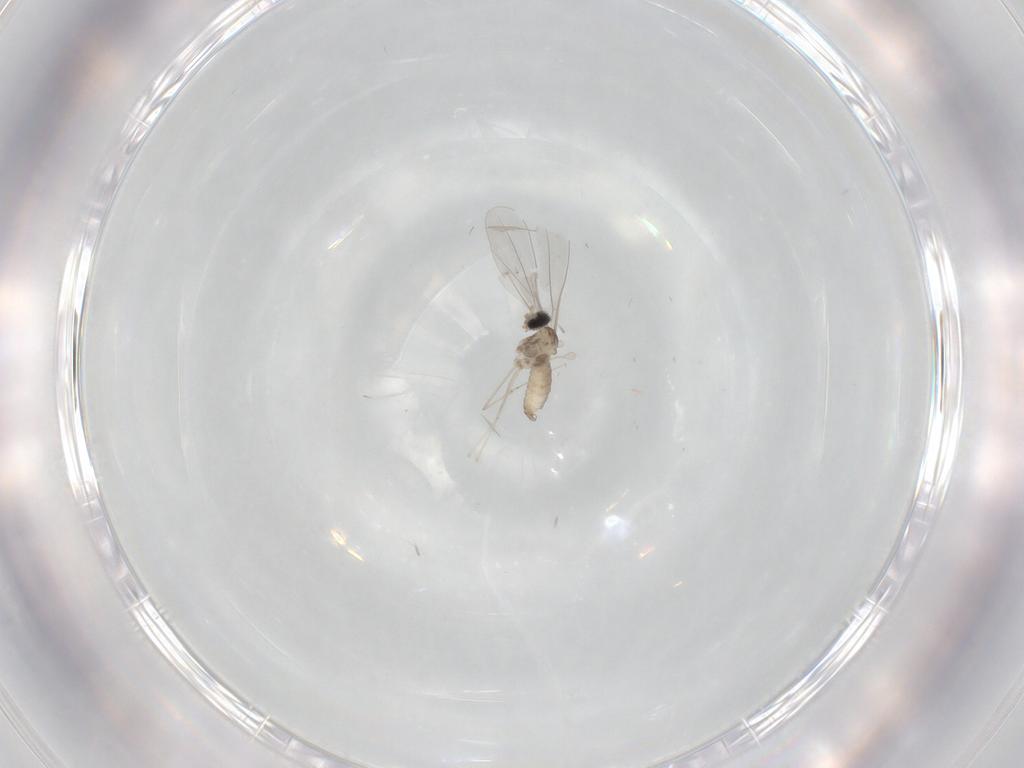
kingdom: Animalia
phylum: Arthropoda
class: Insecta
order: Diptera
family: Cecidomyiidae
